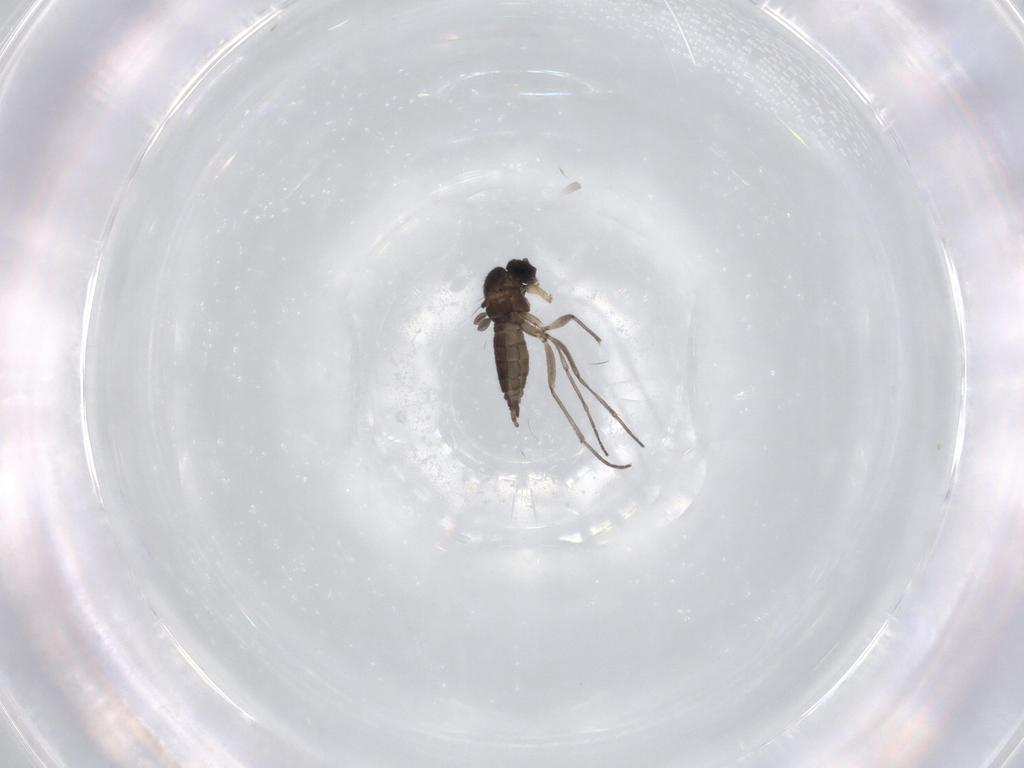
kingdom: Animalia
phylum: Arthropoda
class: Insecta
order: Diptera
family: Sciaridae
